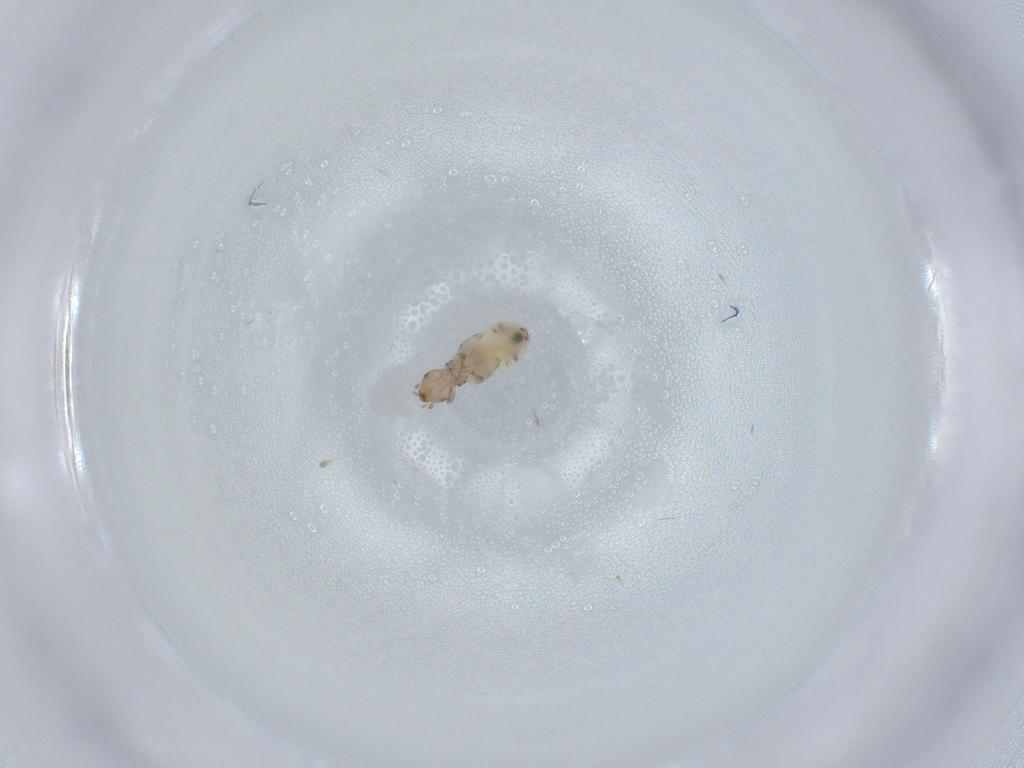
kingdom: Animalia
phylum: Arthropoda
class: Insecta
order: Psocodea
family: Liposcelididae
